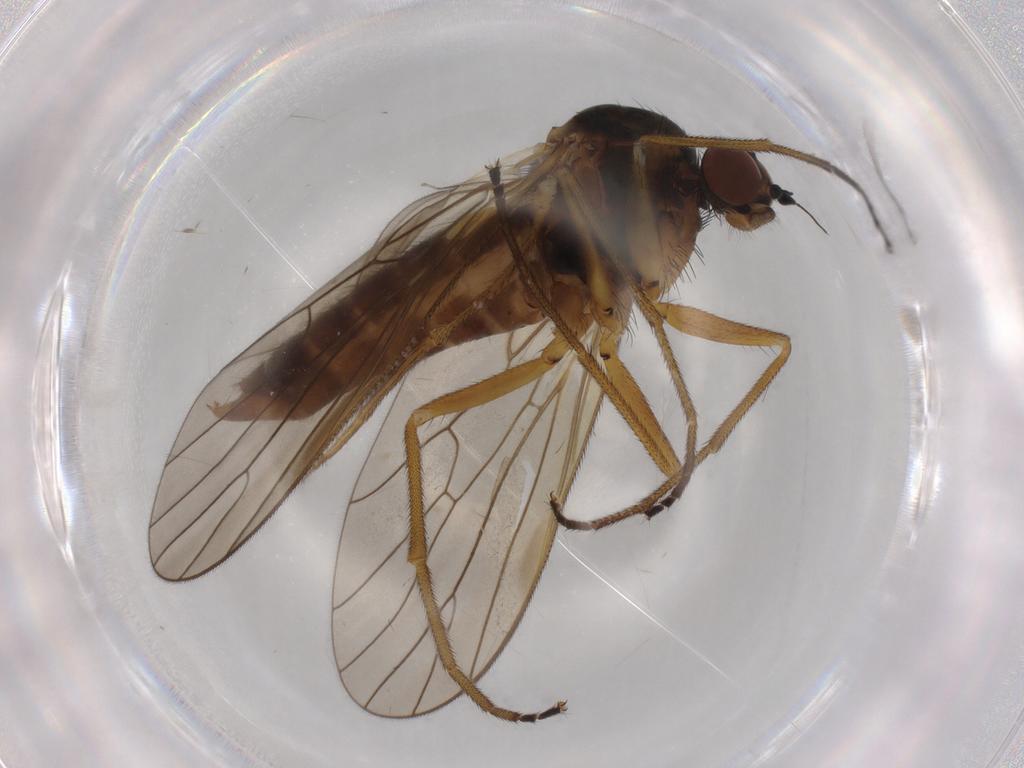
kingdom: Animalia
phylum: Arthropoda
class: Insecta
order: Diptera
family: Brachystomatidae
